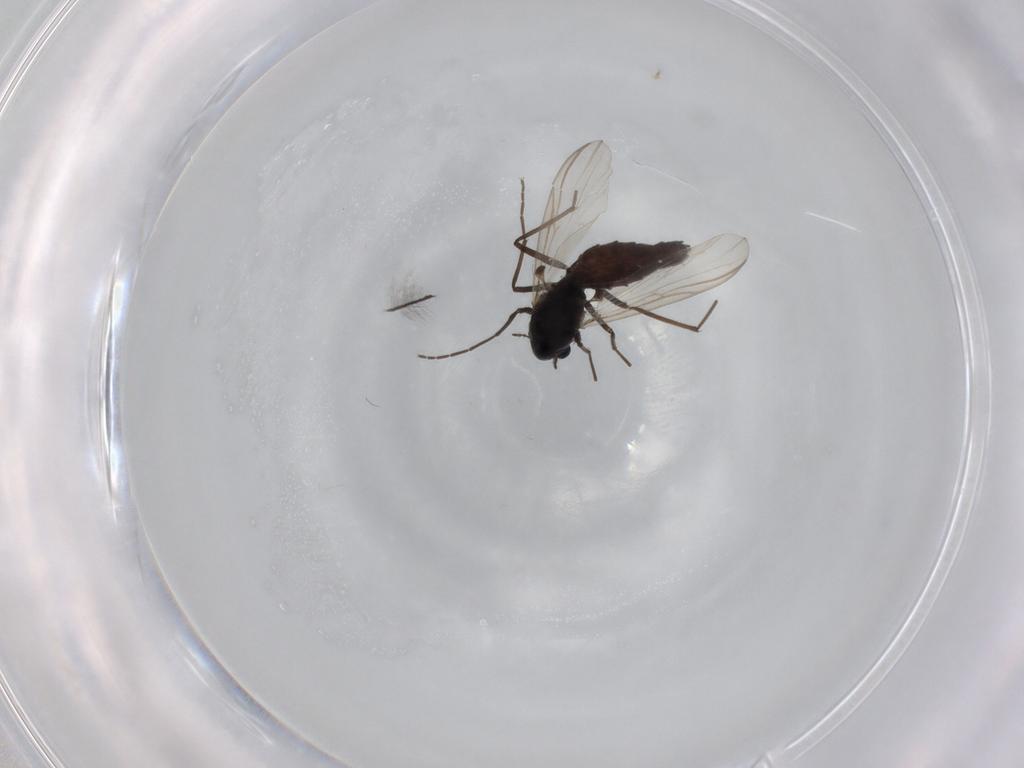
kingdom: Animalia
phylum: Arthropoda
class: Insecta
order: Diptera
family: Chironomidae
